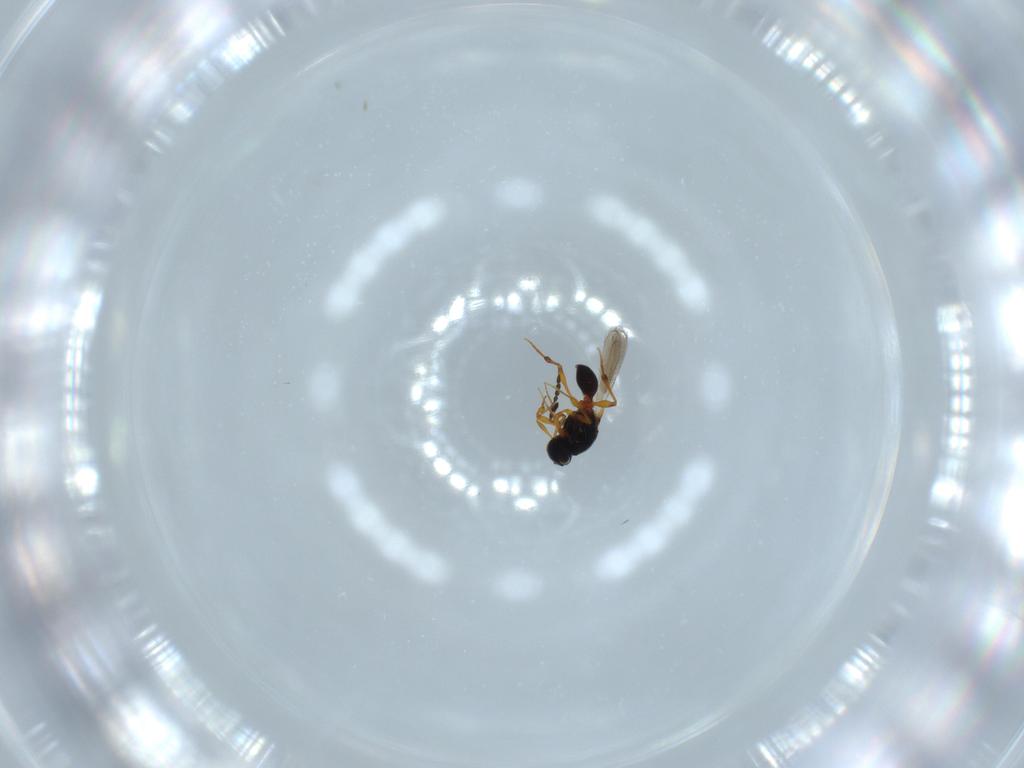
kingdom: Animalia
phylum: Arthropoda
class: Insecta
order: Hymenoptera
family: Platygastridae
